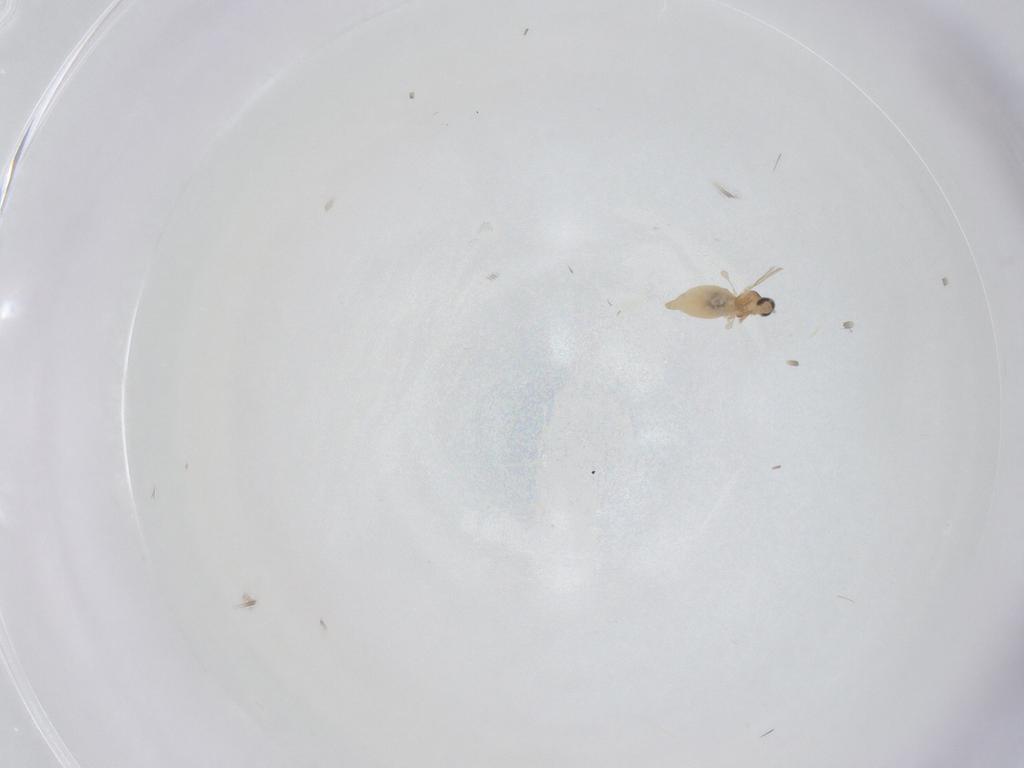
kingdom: Animalia
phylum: Arthropoda
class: Insecta
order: Diptera
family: Cecidomyiidae
